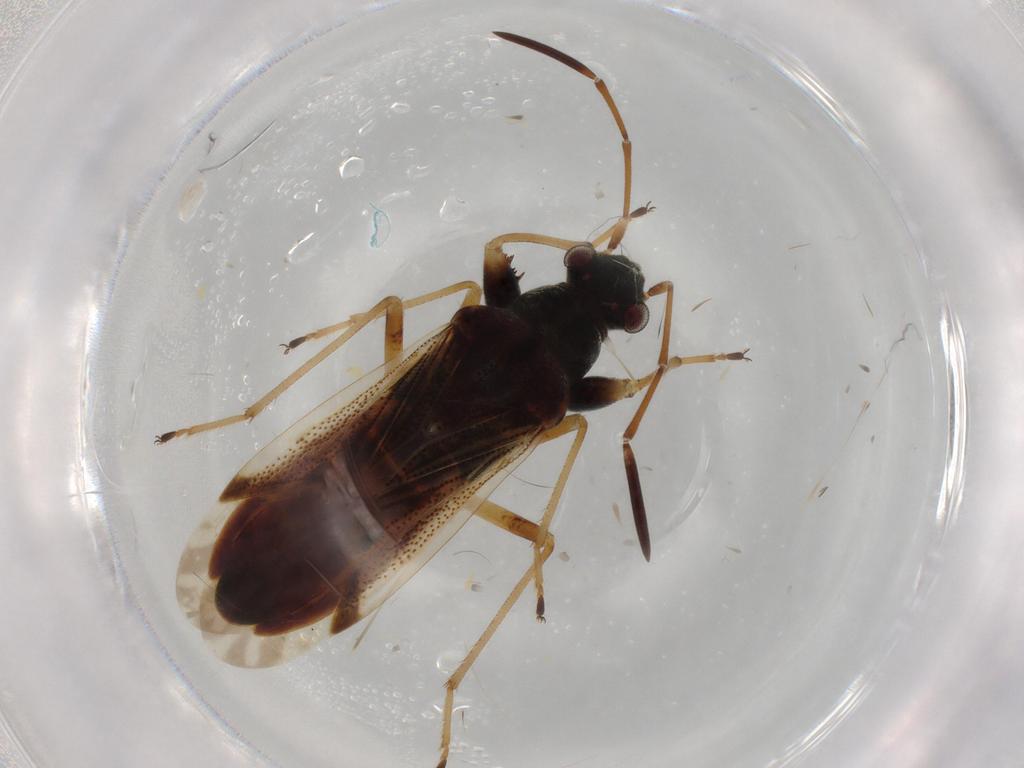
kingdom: Animalia
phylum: Arthropoda
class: Insecta
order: Hemiptera
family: Rhyparochromidae
